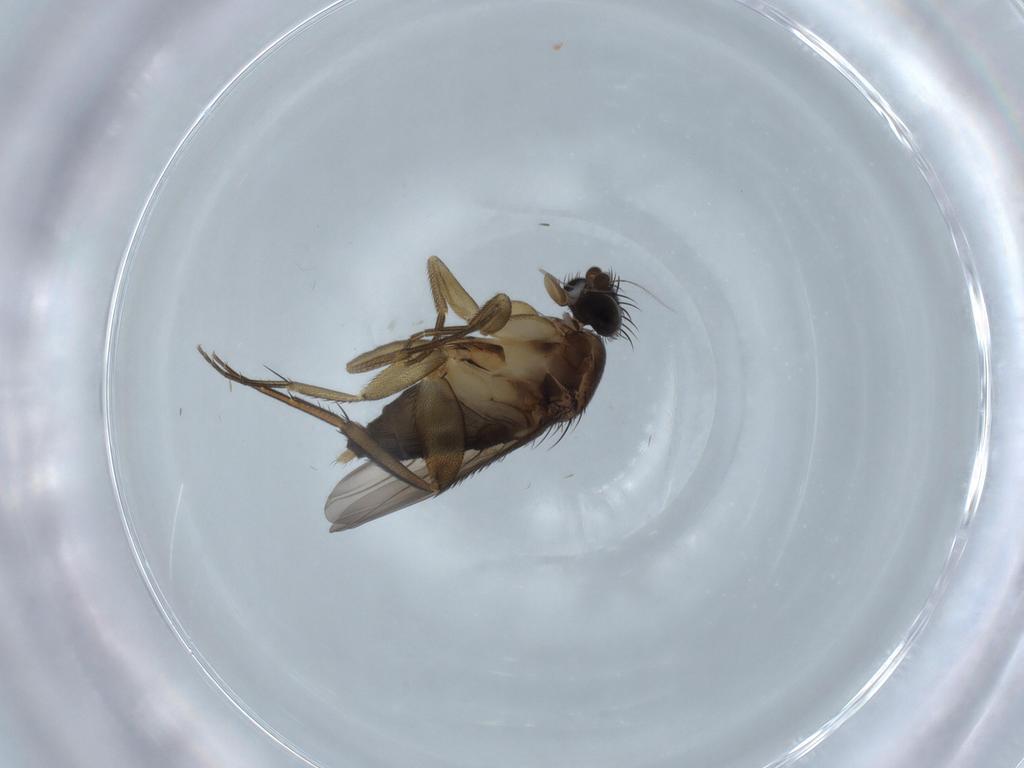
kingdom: Animalia
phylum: Arthropoda
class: Insecta
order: Diptera
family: Phoridae
